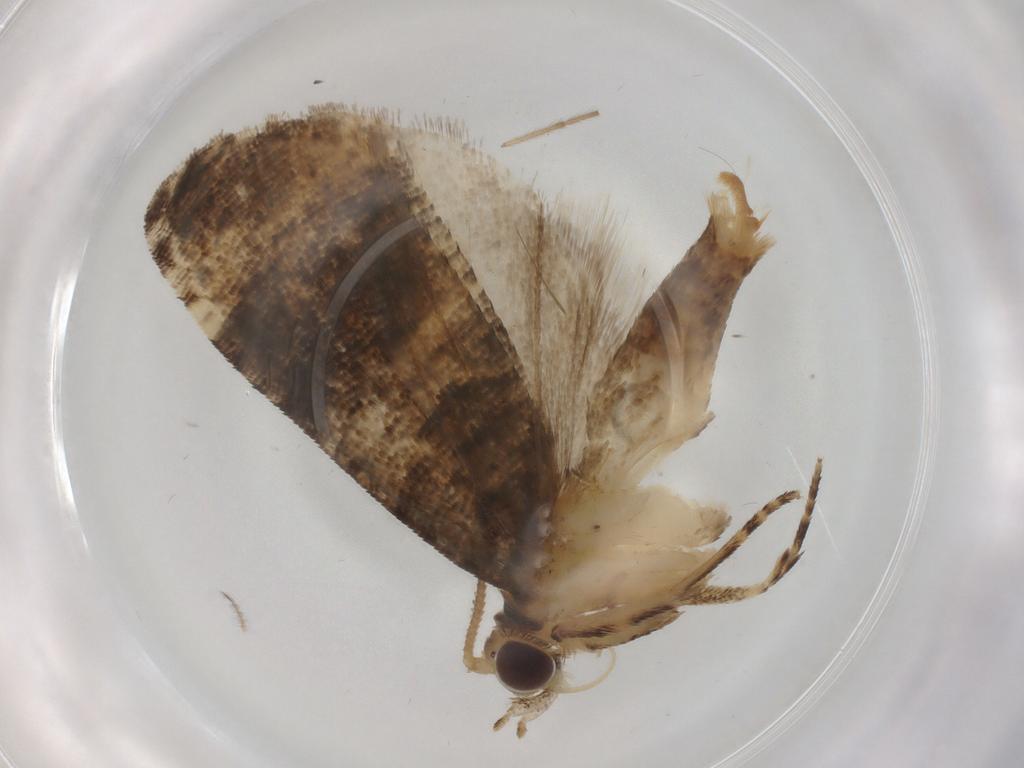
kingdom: Animalia
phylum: Arthropoda
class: Insecta
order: Lepidoptera
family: Tortricidae
